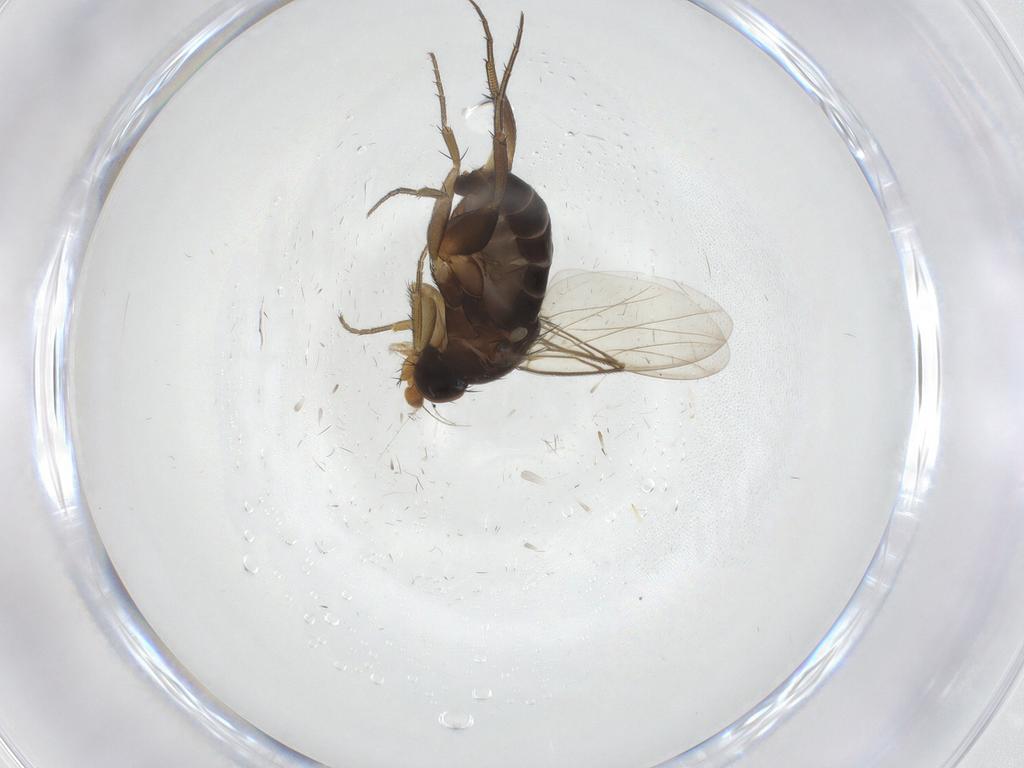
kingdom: Animalia
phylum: Arthropoda
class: Insecta
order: Diptera
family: Phoridae
